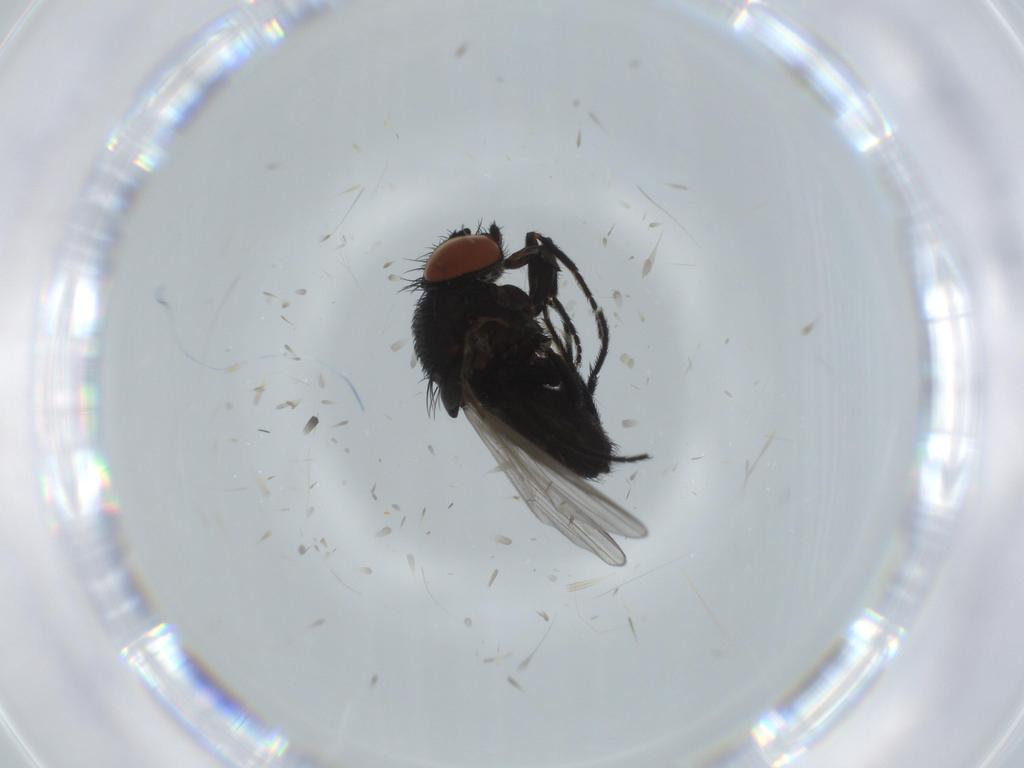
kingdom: Animalia
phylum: Arthropoda
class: Insecta
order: Diptera
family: Milichiidae
